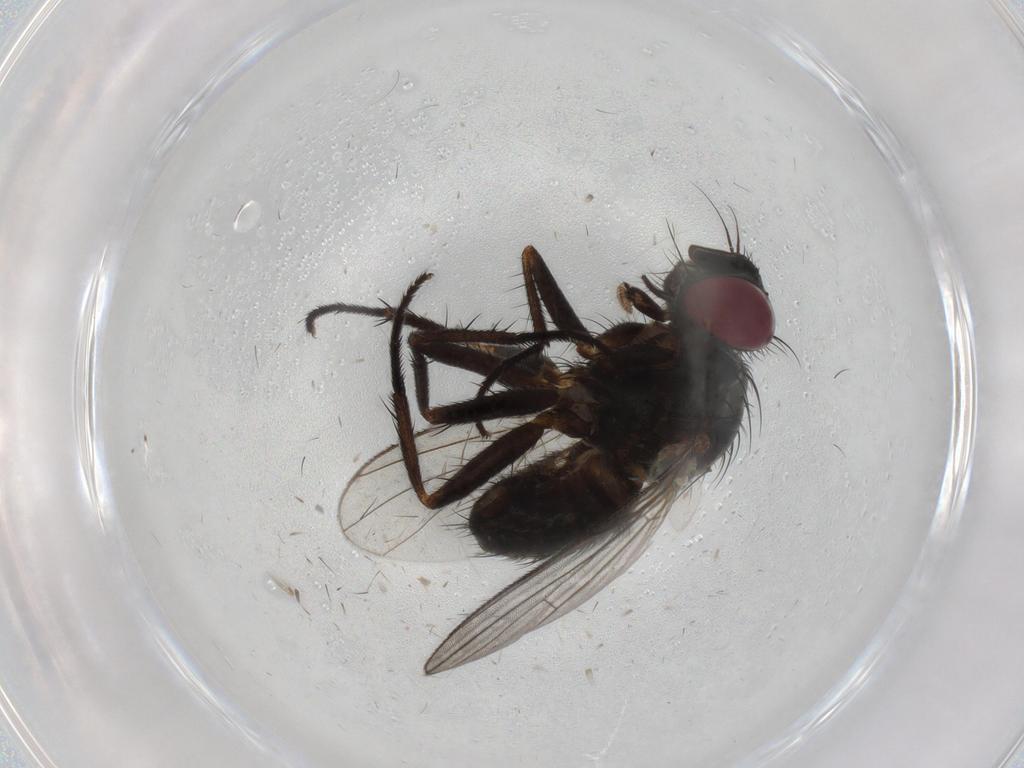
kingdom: Animalia
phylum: Arthropoda
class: Insecta
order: Diptera
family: Muscidae
